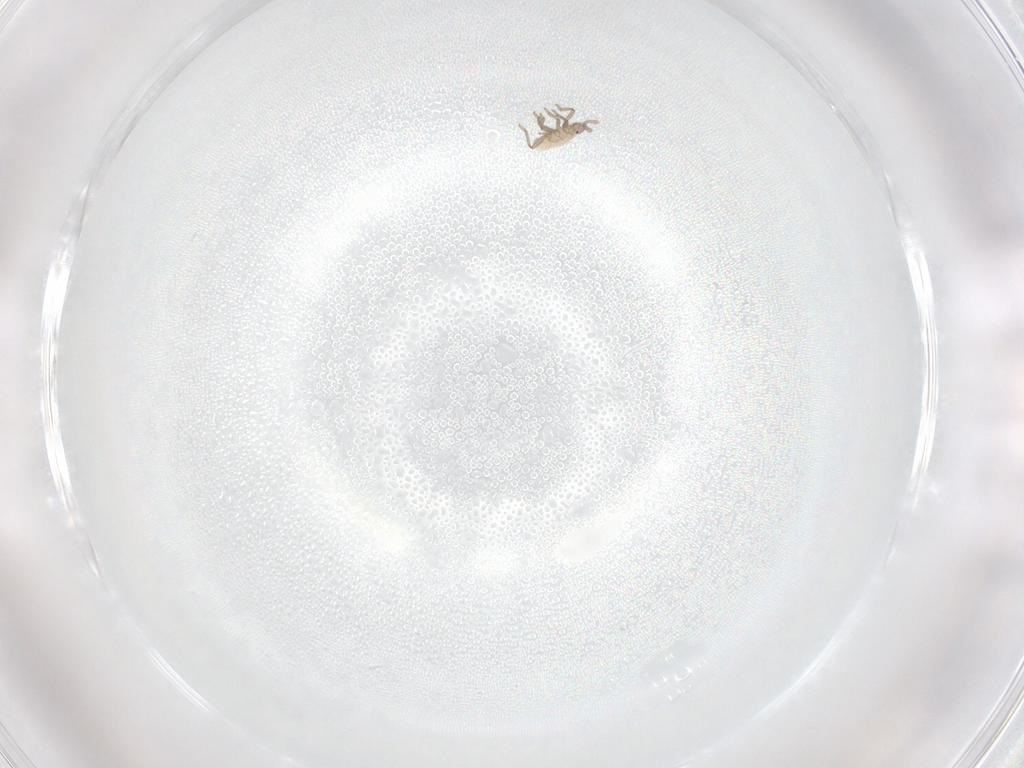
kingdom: Animalia
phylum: Arthropoda
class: Insecta
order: Hemiptera
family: Aphididae
